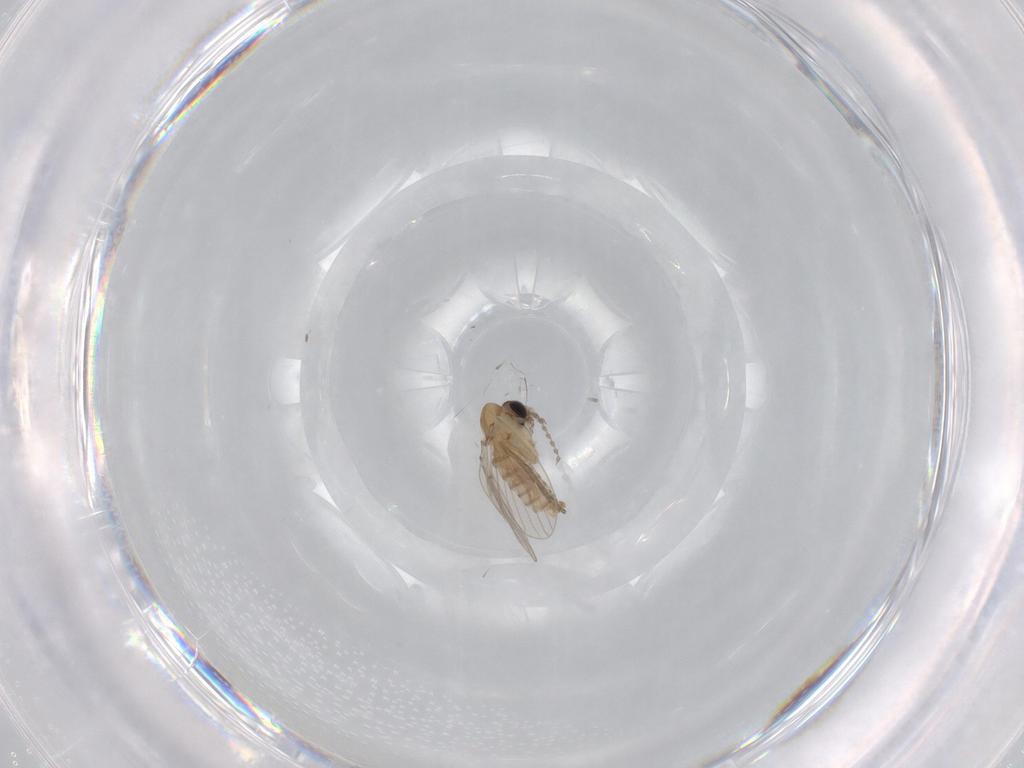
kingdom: Animalia
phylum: Arthropoda
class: Insecta
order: Diptera
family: Psychodidae
